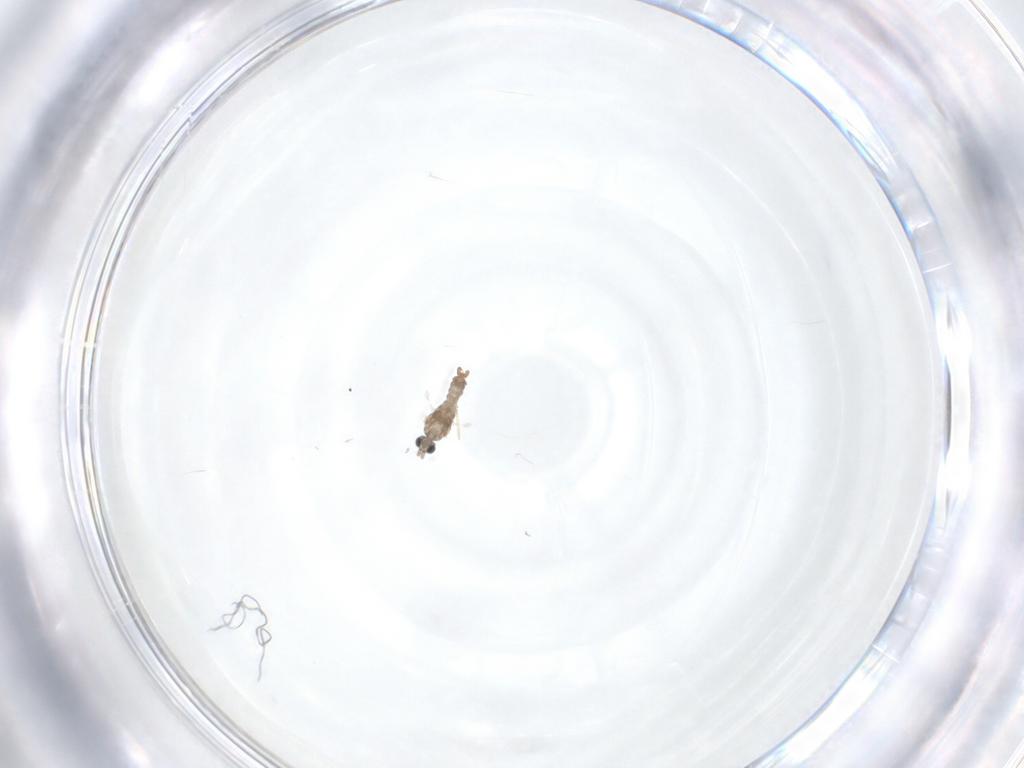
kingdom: Animalia
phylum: Arthropoda
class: Insecta
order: Diptera
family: Cecidomyiidae
